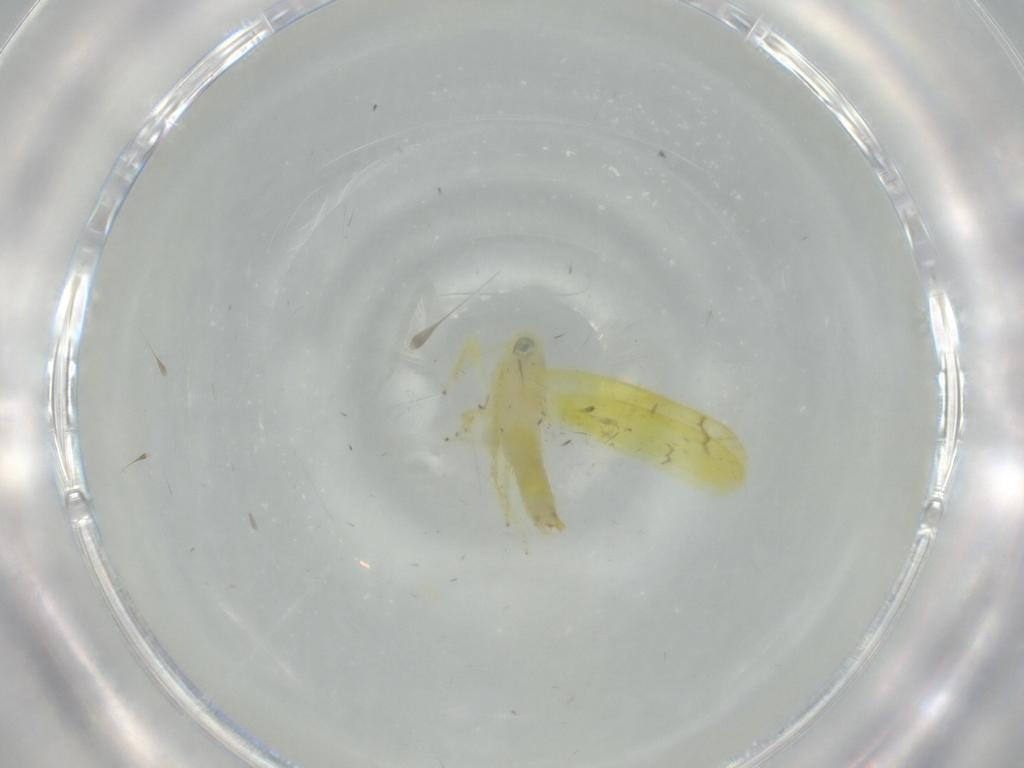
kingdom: Animalia
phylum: Arthropoda
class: Insecta
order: Hemiptera
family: Cicadellidae
